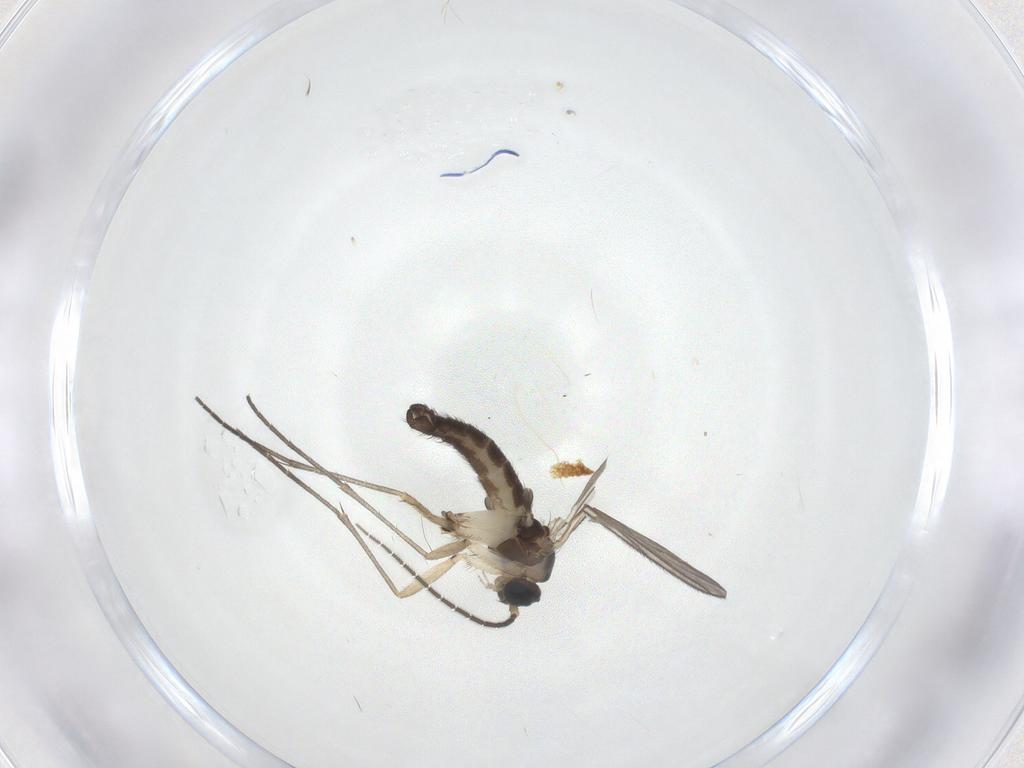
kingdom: Animalia
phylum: Arthropoda
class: Insecta
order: Diptera
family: Sciaridae
